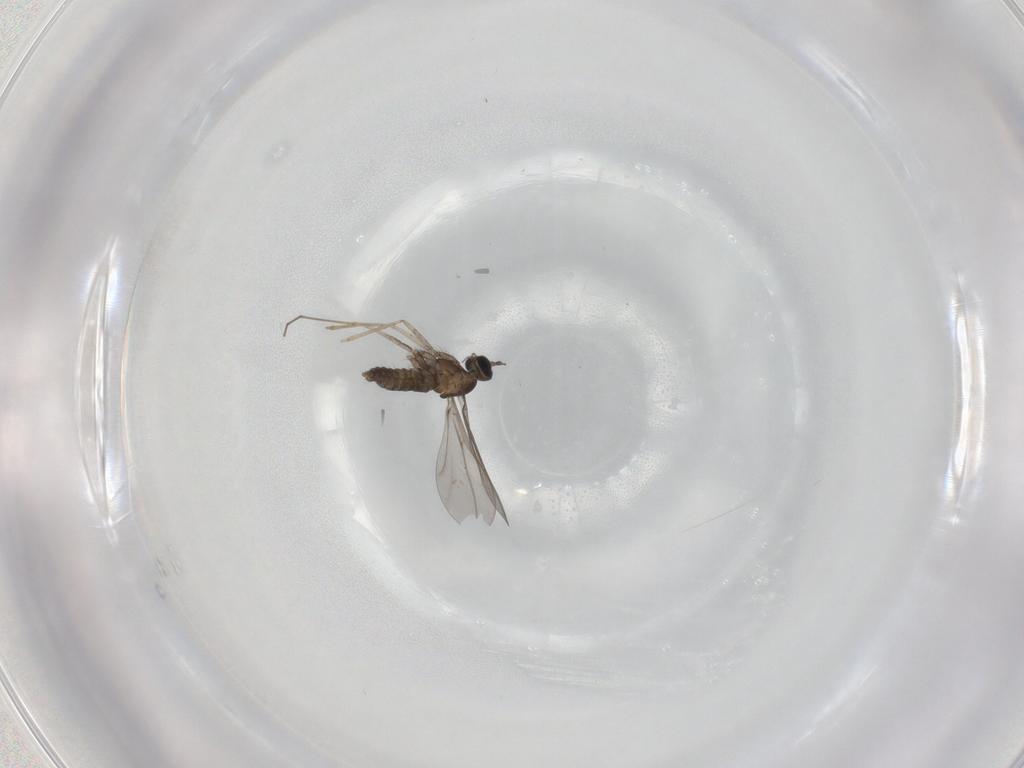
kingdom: Animalia
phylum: Arthropoda
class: Insecta
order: Diptera
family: Cecidomyiidae
